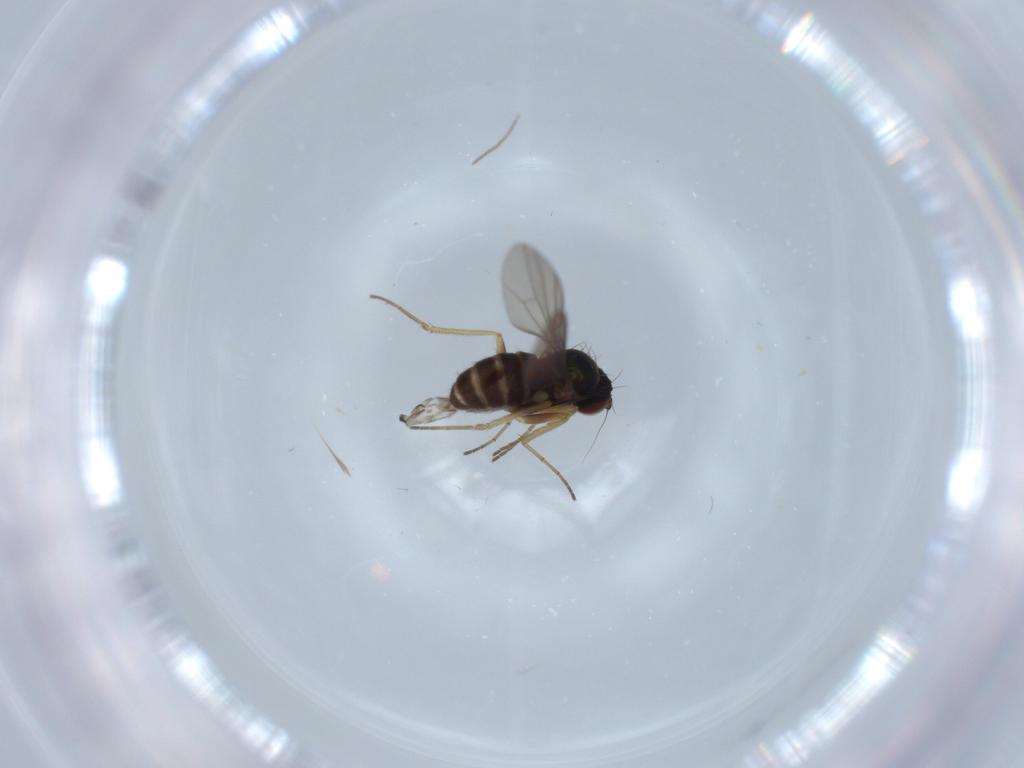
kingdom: Animalia
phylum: Arthropoda
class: Insecta
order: Diptera
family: Dolichopodidae
